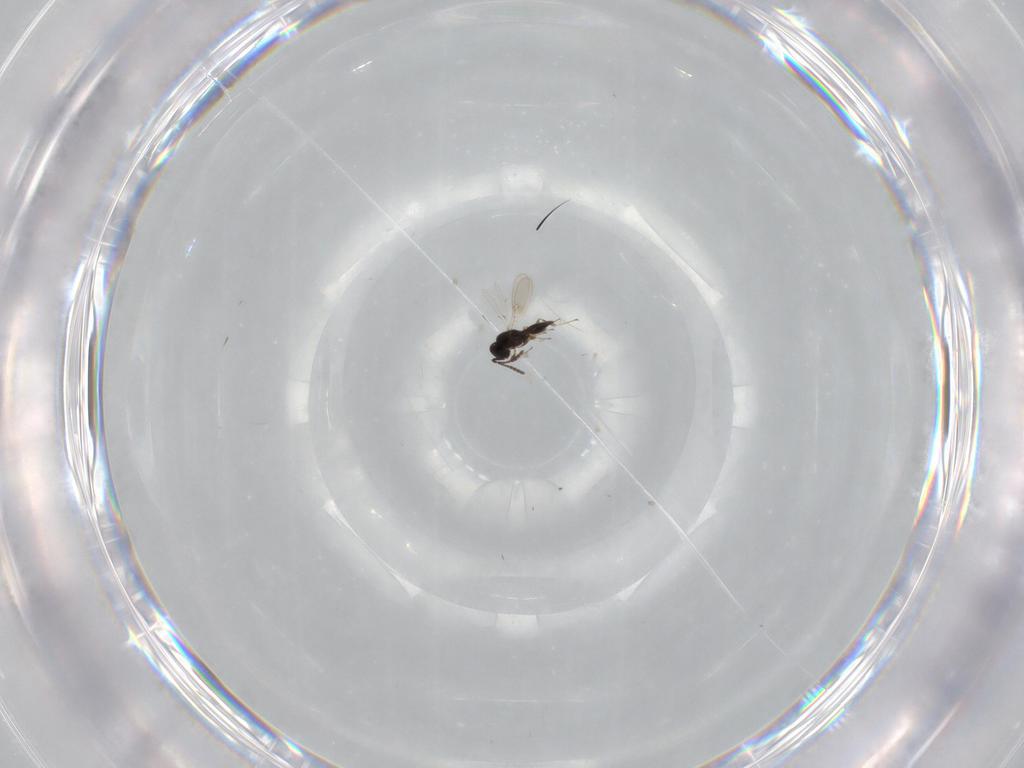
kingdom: Animalia
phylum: Arthropoda
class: Insecta
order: Hymenoptera
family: Scelionidae
